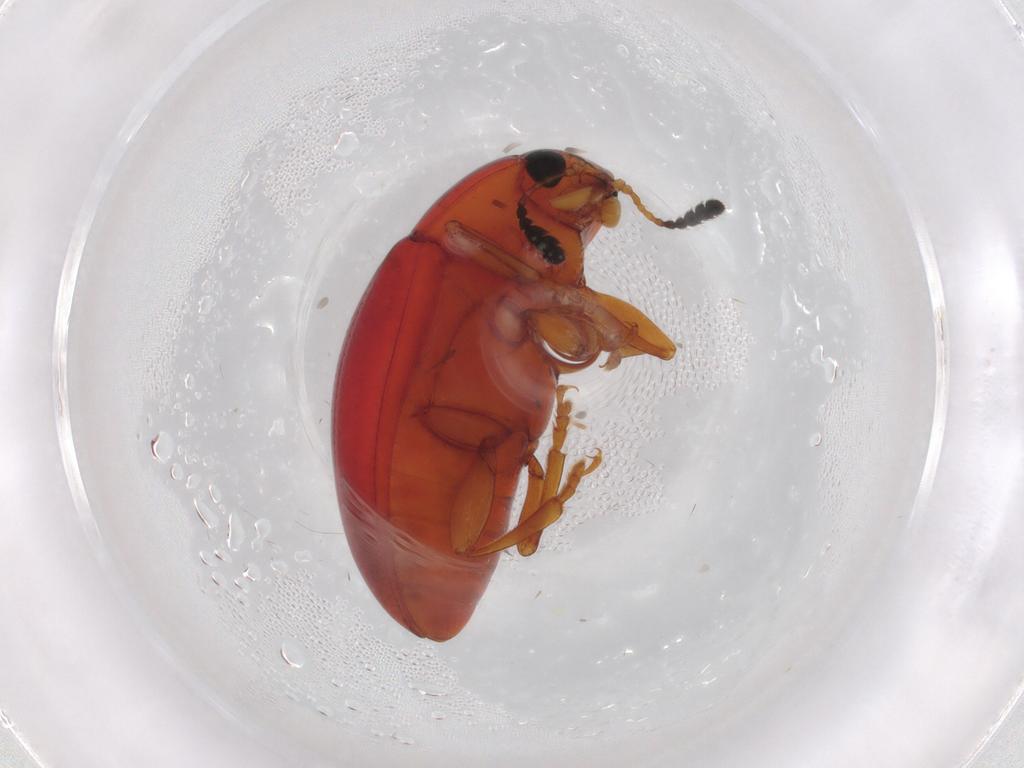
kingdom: Animalia
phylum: Arthropoda
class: Insecta
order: Coleoptera
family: Erotylidae
